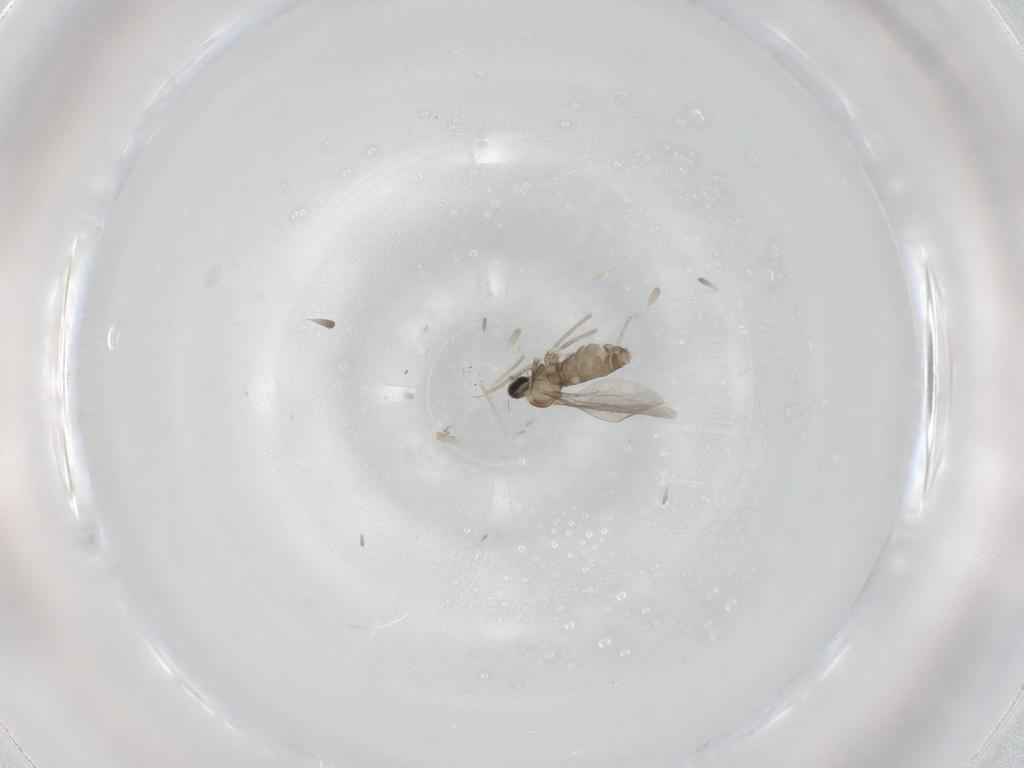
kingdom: Animalia
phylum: Arthropoda
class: Insecta
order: Diptera
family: Cecidomyiidae
